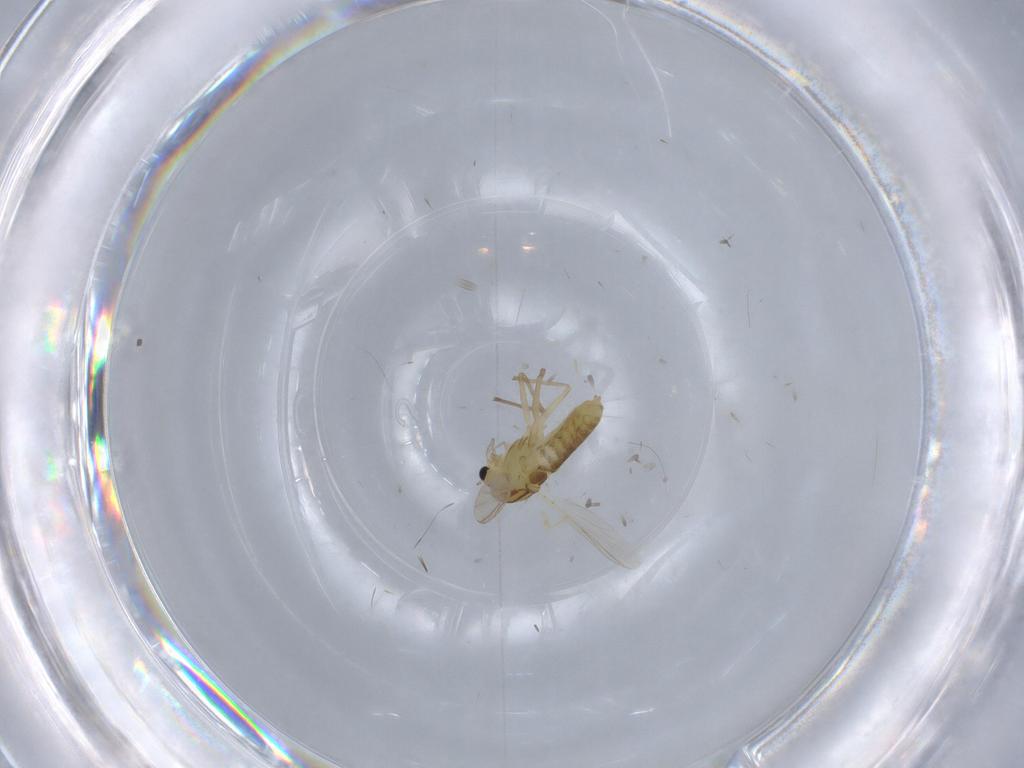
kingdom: Animalia
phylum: Arthropoda
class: Insecta
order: Diptera
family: Chironomidae
